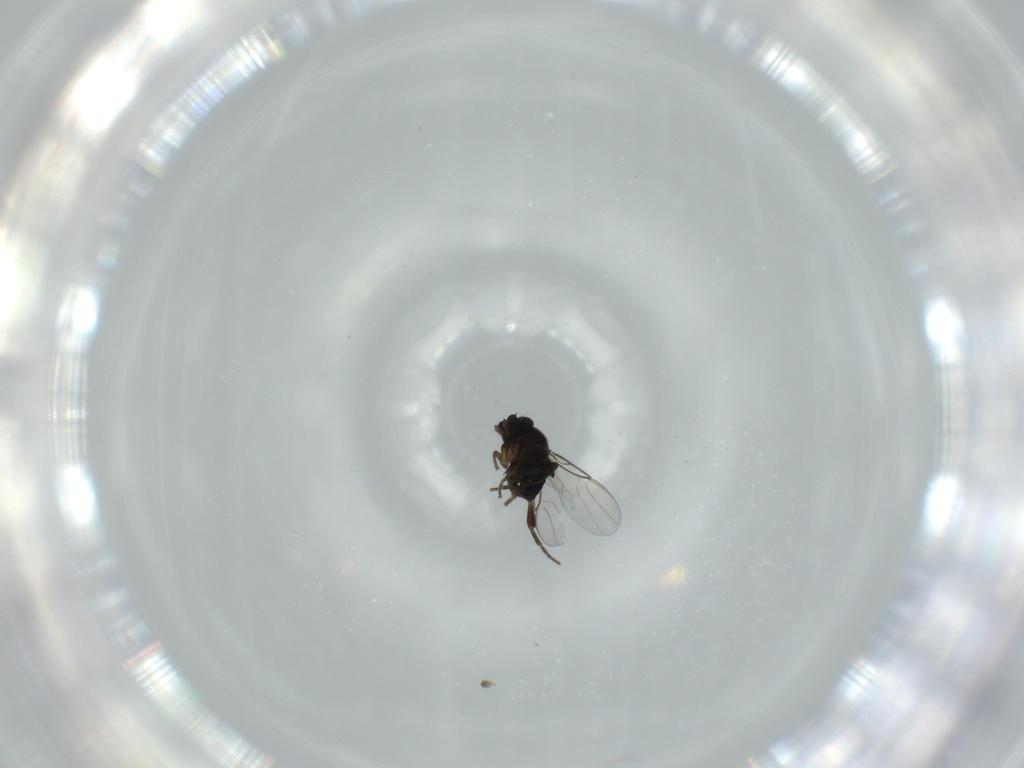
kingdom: Animalia
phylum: Arthropoda
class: Insecta
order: Diptera
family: Phoridae
